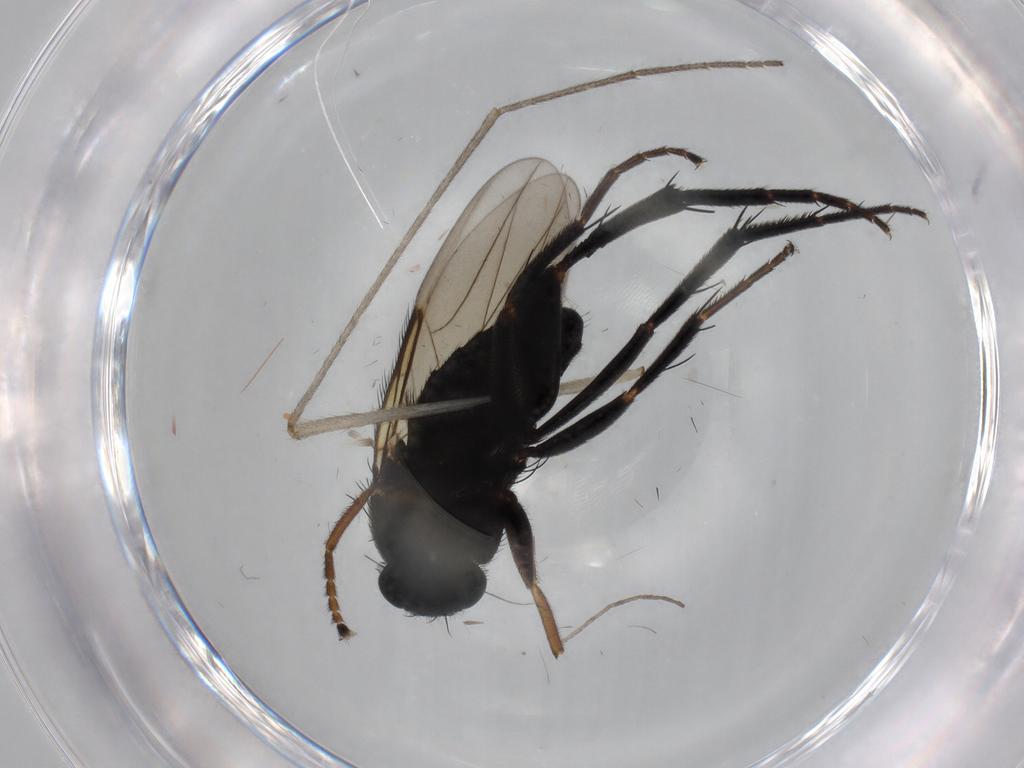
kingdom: Animalia
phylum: Arthropoda
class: Insecta
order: Diptera
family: Phoridae
